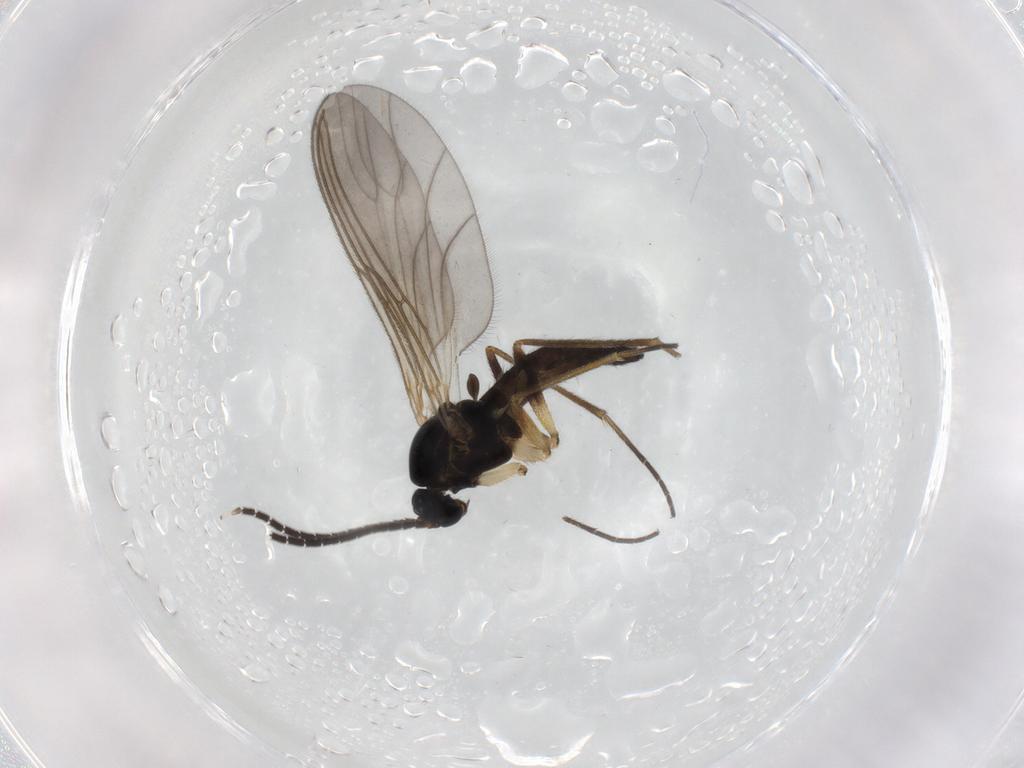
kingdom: Animalia
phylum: Arthropoda
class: Insecta
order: Diptera
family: Sciaridae
